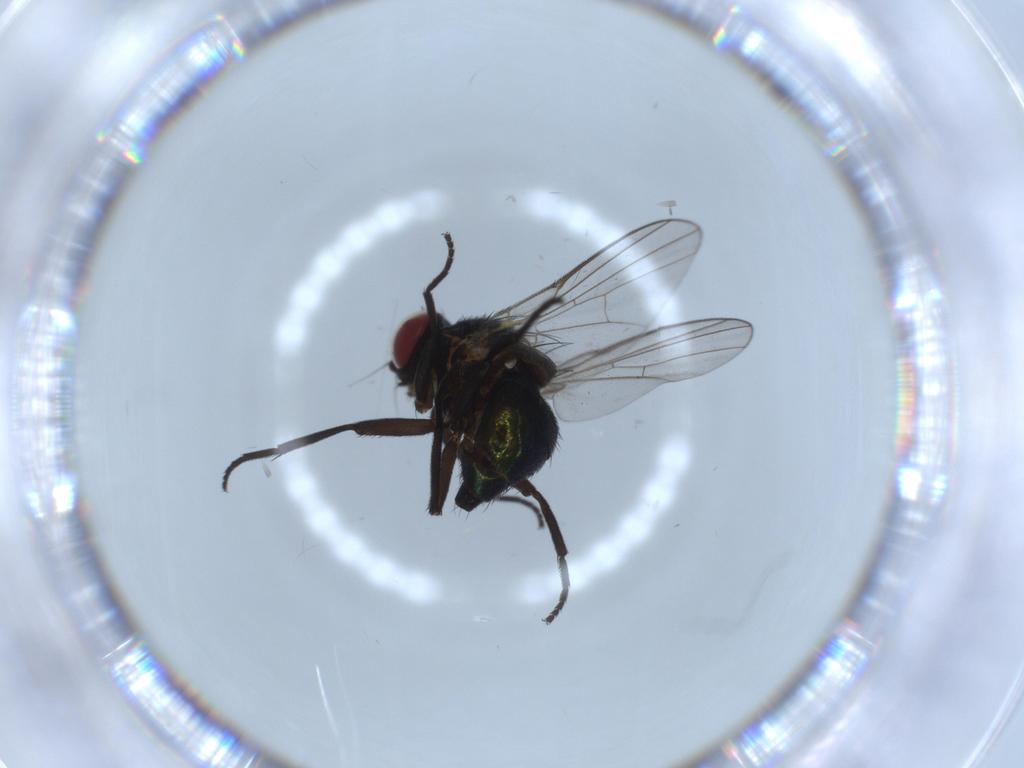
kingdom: Animalia
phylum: Arthropoda
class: Insecta
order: Diptera
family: Agromyzidae
